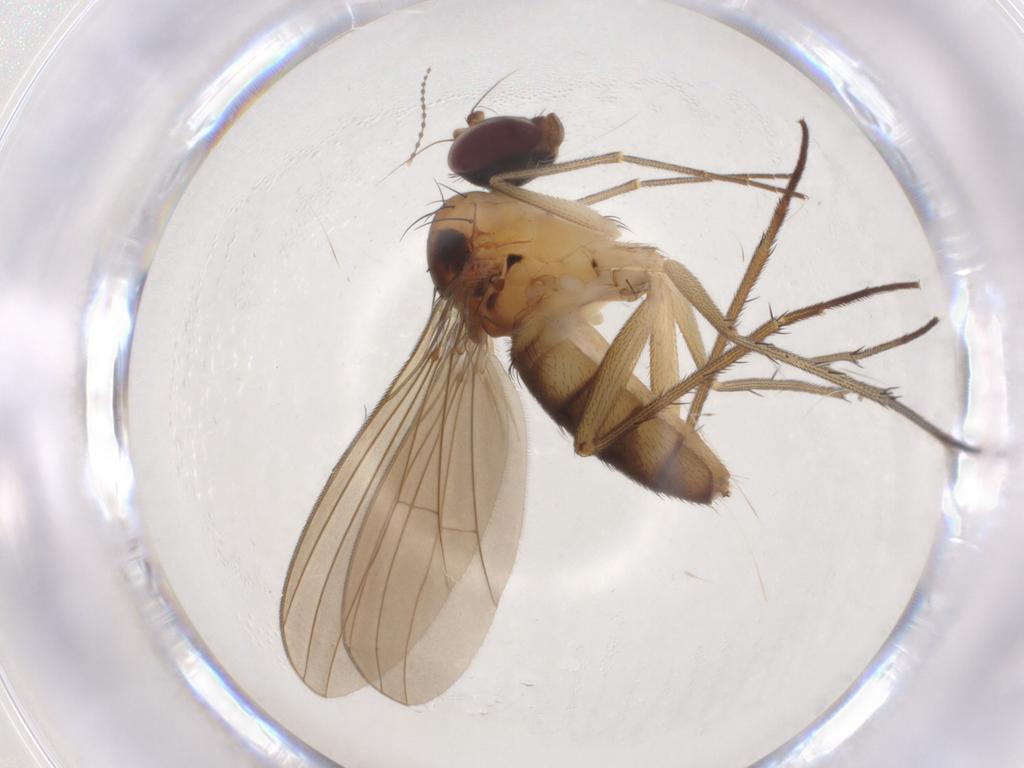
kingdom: Animalia
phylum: Arthropoda
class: Insecta
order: Diptera
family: Dolichopodidae
